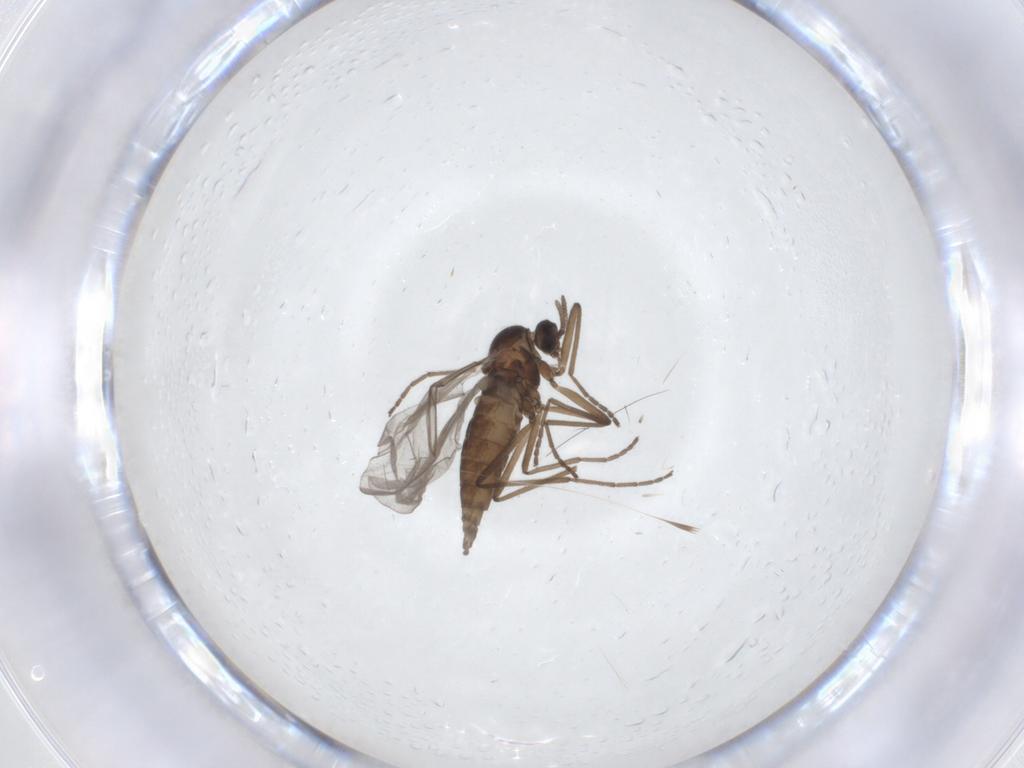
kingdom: Animalia
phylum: Arthropoda
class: Insecta
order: Diptera
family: Cecidomyiidae
